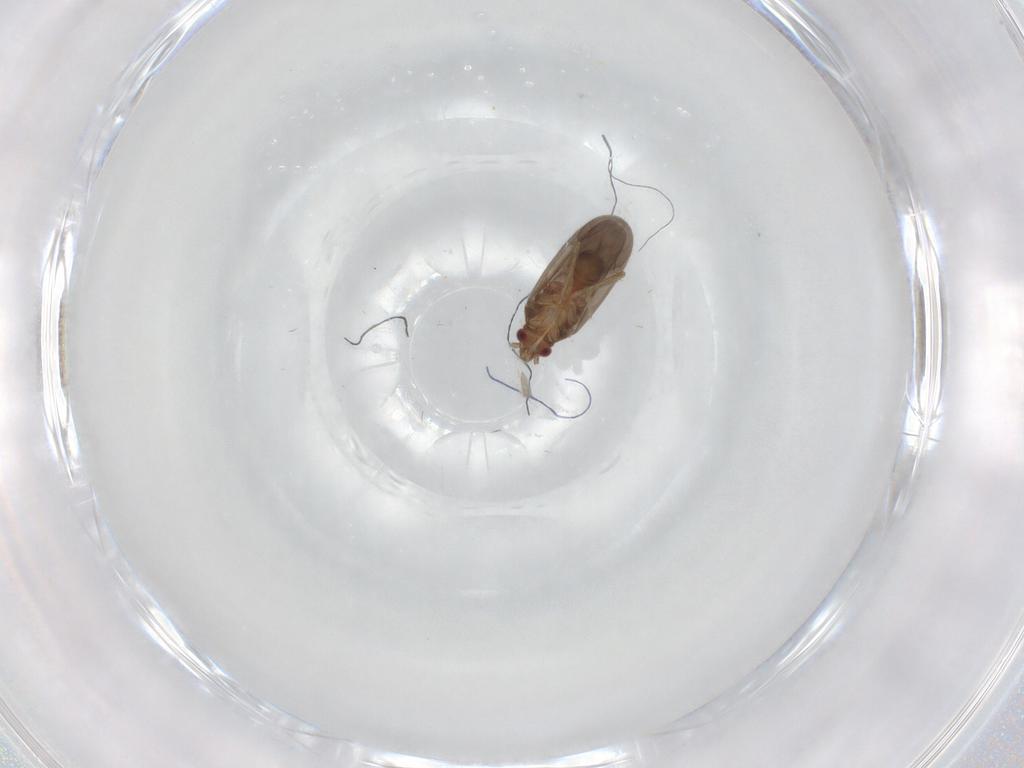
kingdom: Animalia
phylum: Arthropoda
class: Insecta
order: Hemiptera
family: Ceratocombidae
